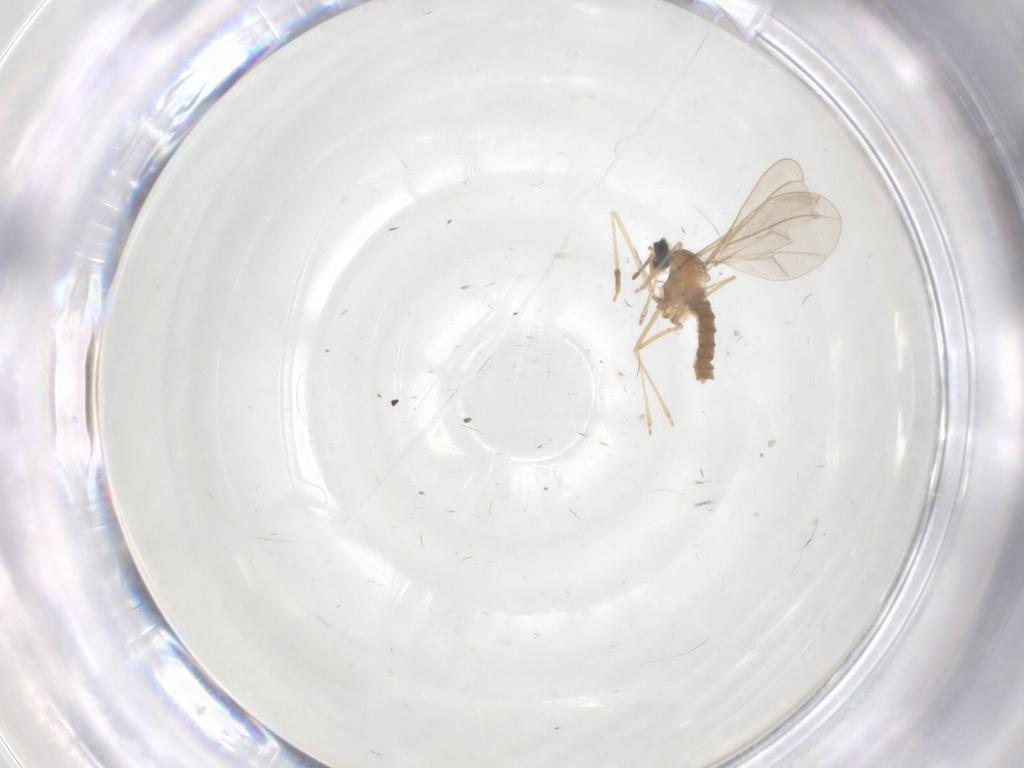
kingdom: Animalia
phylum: Arthropoda
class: Insecta
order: Diptera
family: Cecidomyiidae
